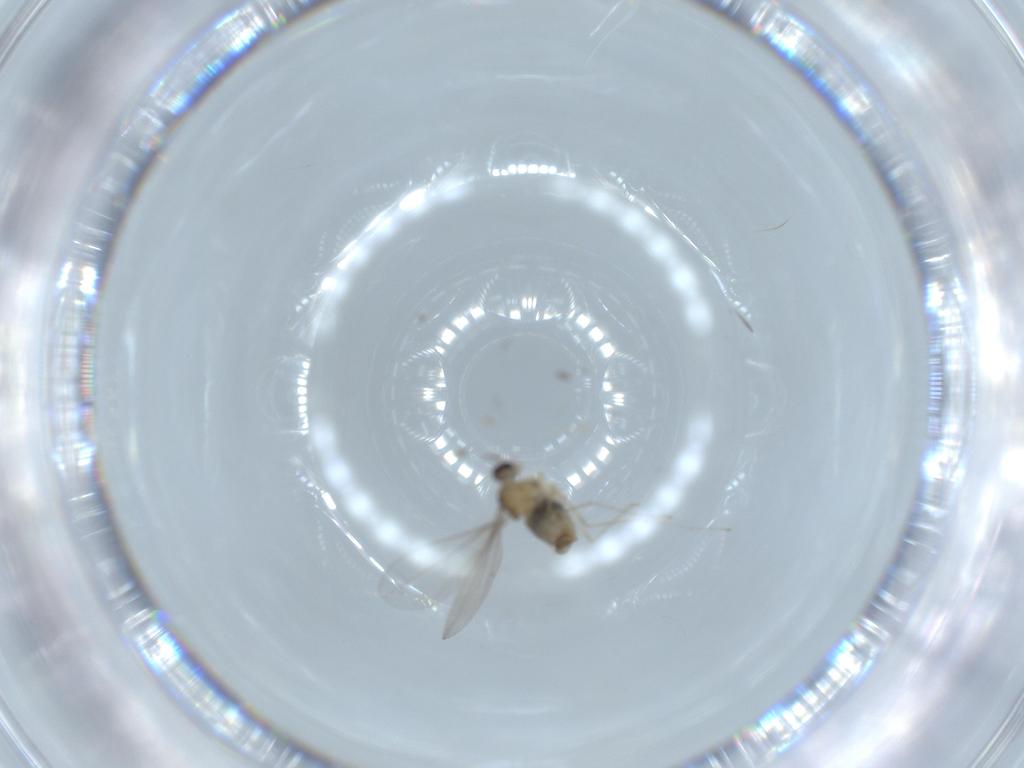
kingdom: Animalia
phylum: Arthropoda
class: Insecta
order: Diptera
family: Cecidomyiidae
